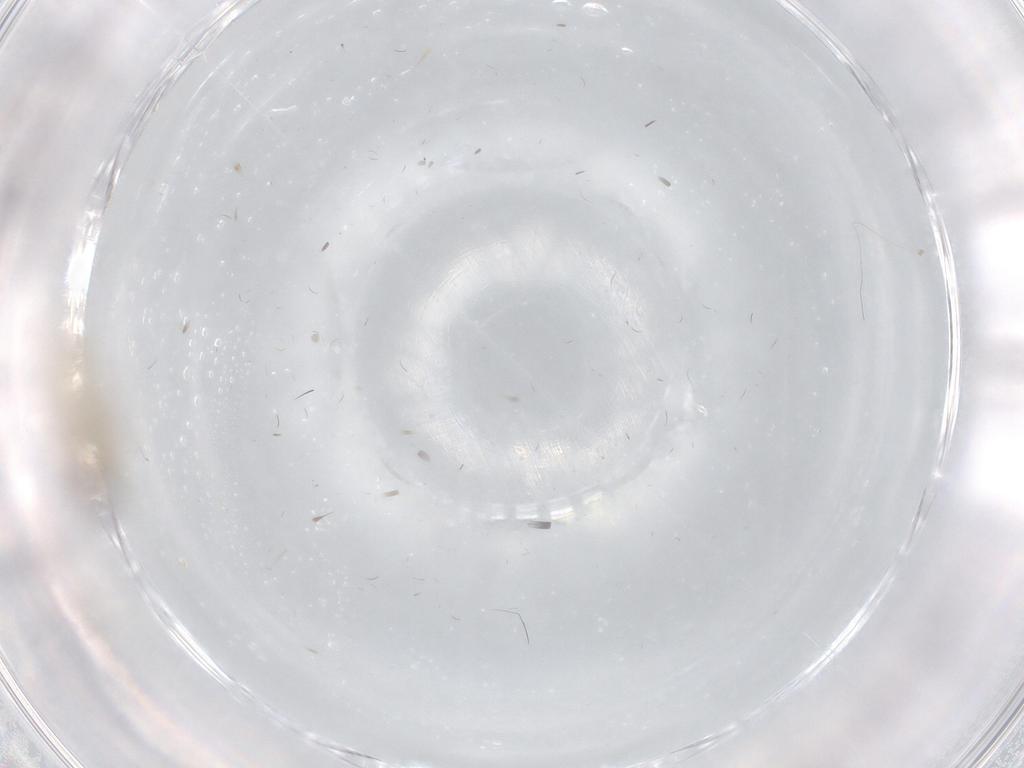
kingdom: Animalia
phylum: Arthropoda
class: Insecta
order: Diptera
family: Cecidomyiidae
